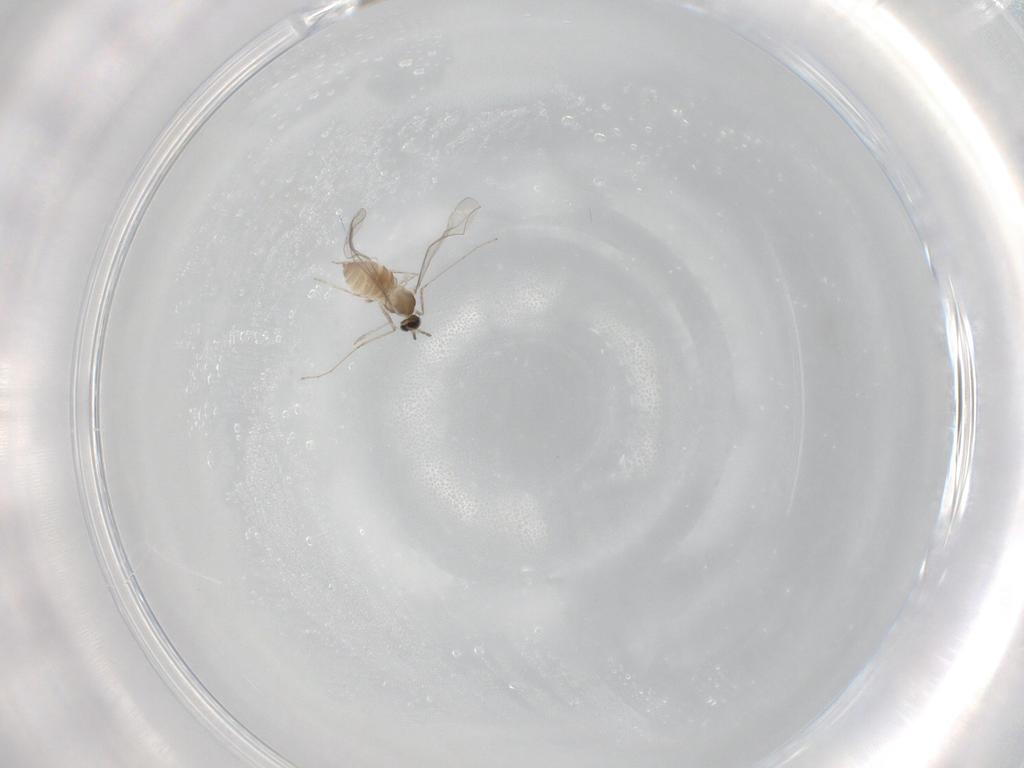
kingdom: Animalia
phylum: Arthropoda
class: Insecta
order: Diptera
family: Cecidomyiidae
